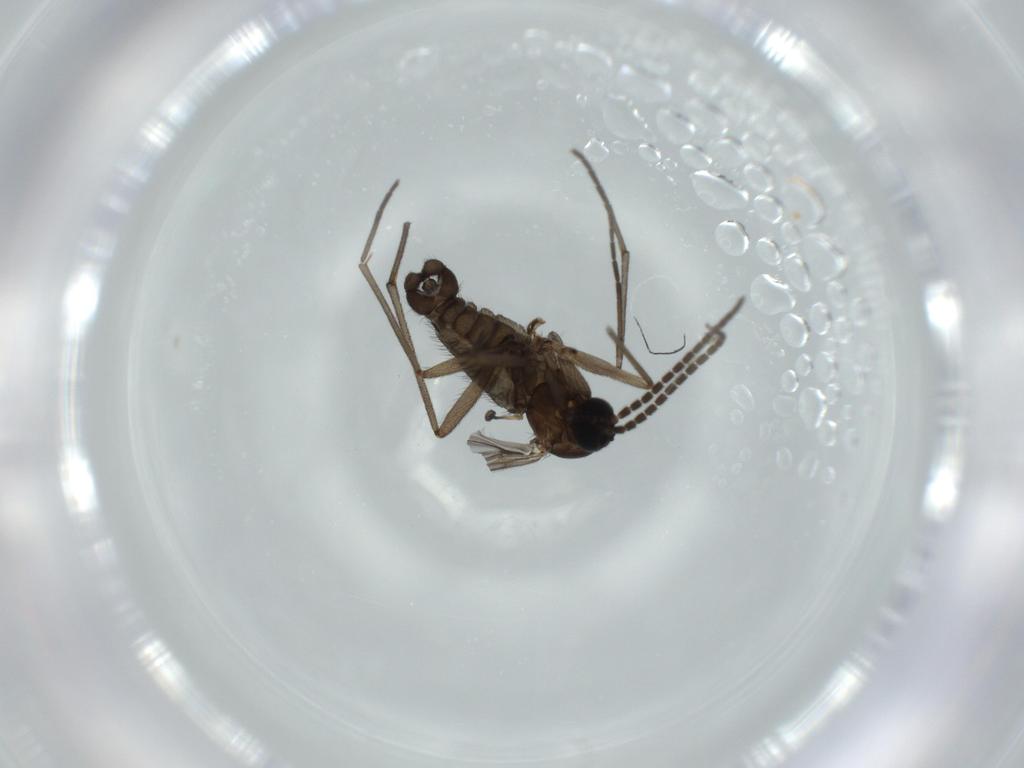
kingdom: Animalia
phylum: Arthropoda
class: Insecta
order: Diptera
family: Sciaridae
